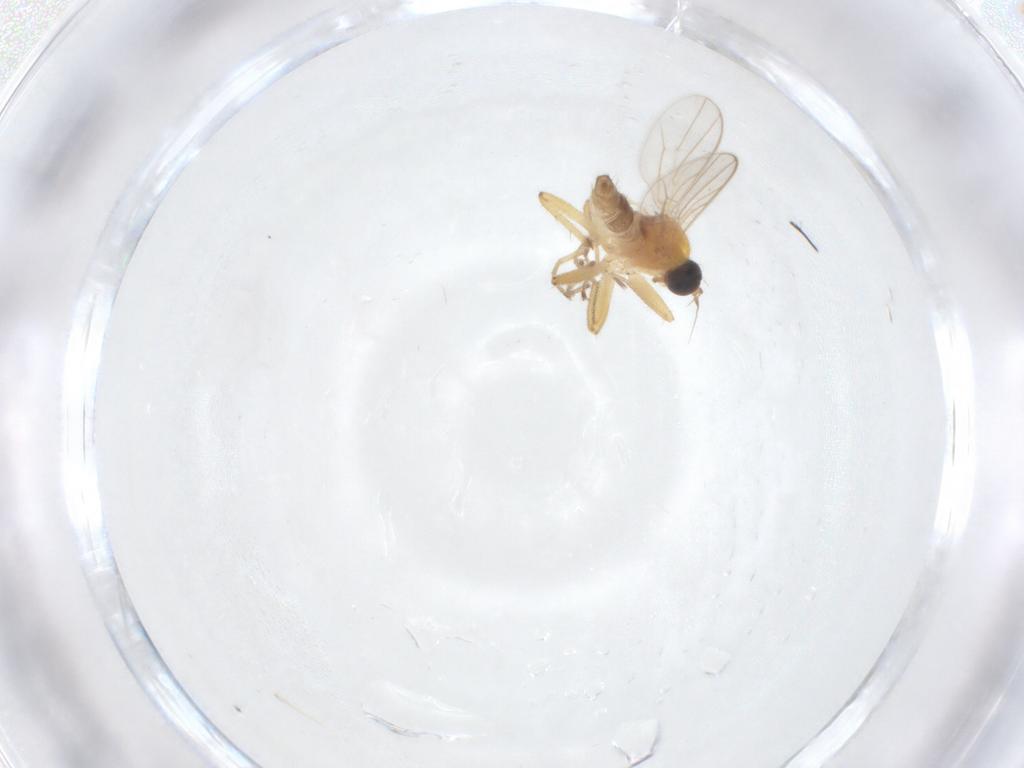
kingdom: Animalia
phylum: Arthropoda
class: Insecta
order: Diptera
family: Hybotidae
